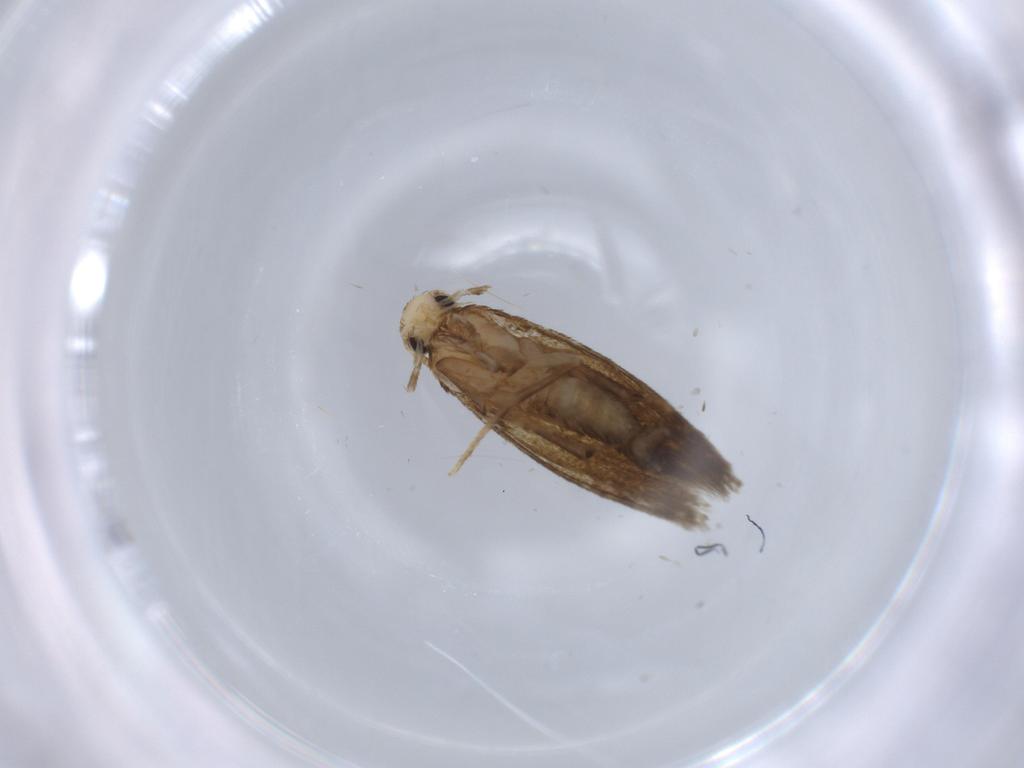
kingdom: Animalia
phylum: Arthropoda
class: Insecta
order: Lepidoptera
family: Tineidae
